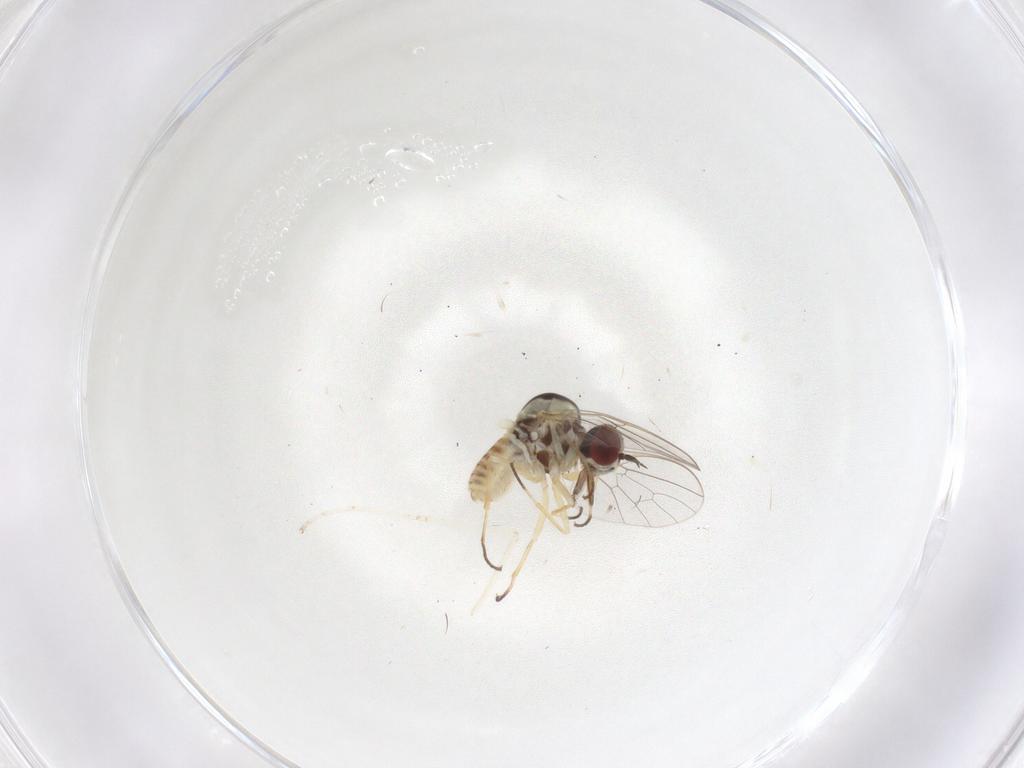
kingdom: Animalia
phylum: Arthropoda
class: Insecta
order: Diptera
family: Bombyliidae
